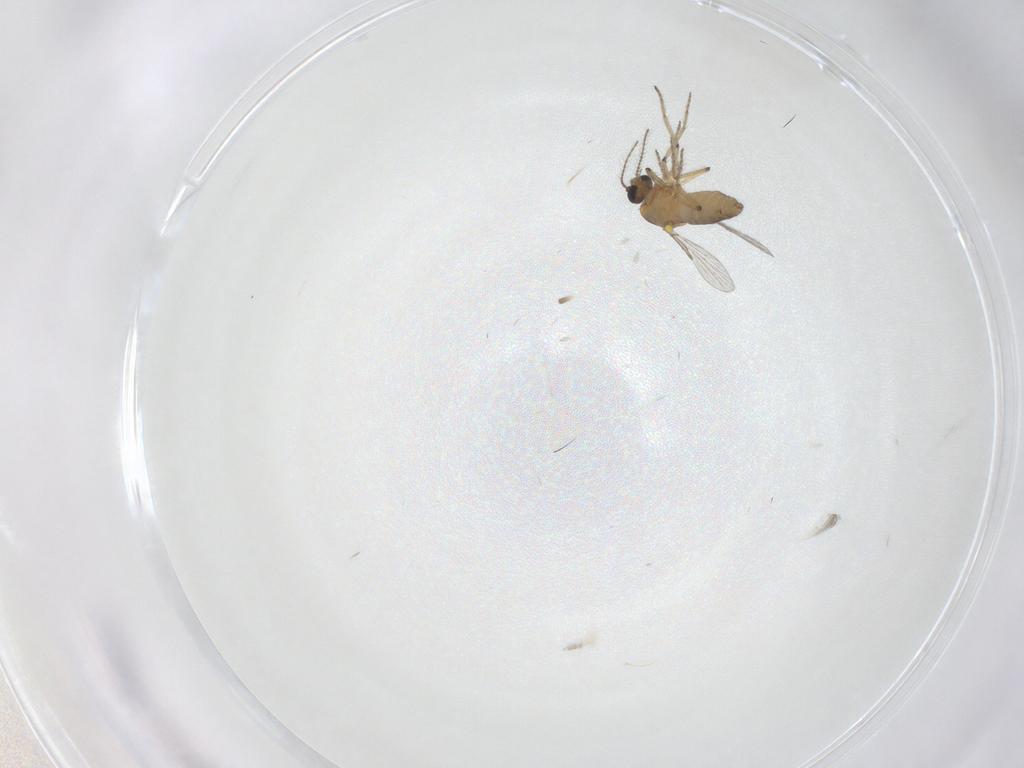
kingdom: Animalia
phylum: Arthropoda
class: Insecta
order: Diptera
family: Ceratopogonidae
